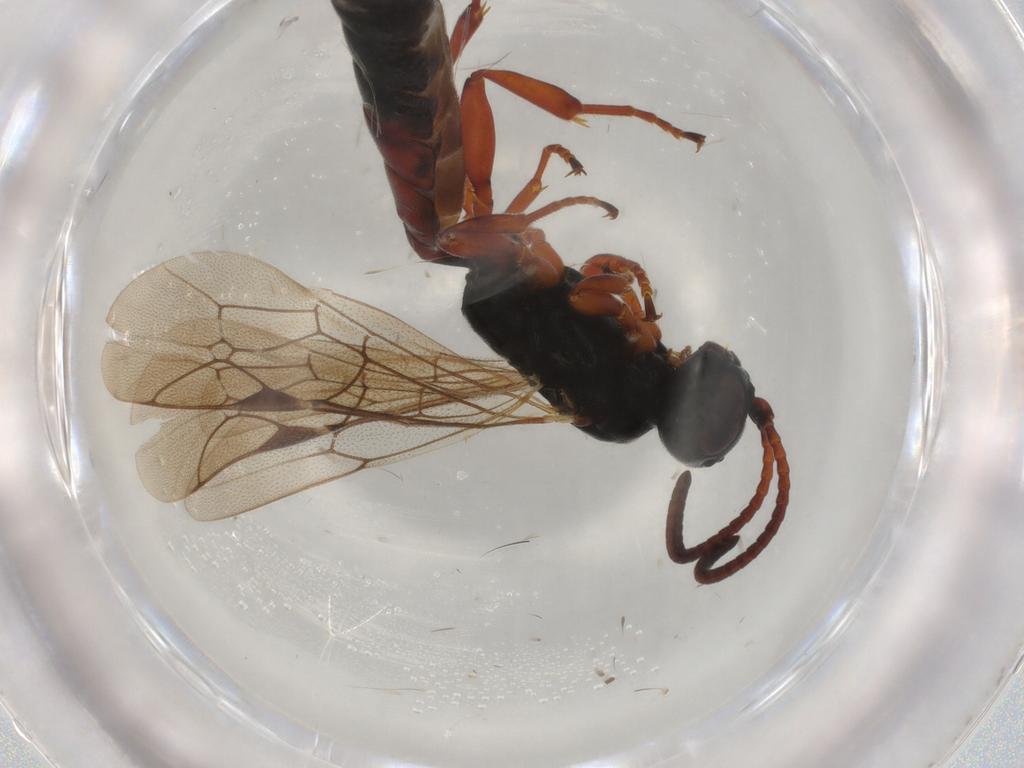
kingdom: Animalia
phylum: Arthropoda
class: Insecta
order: Hymenoptera
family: Ichneumonidae
